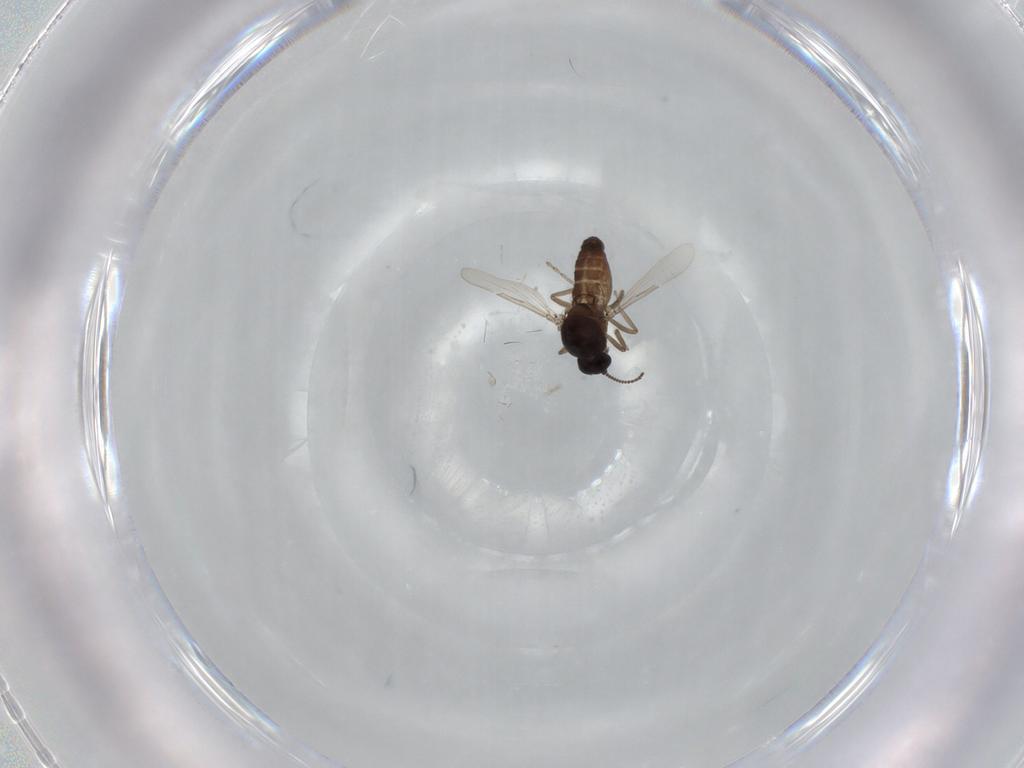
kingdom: Animalia
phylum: Arthropoda
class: Insecta
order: Diptera
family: Ceratopogonidae
